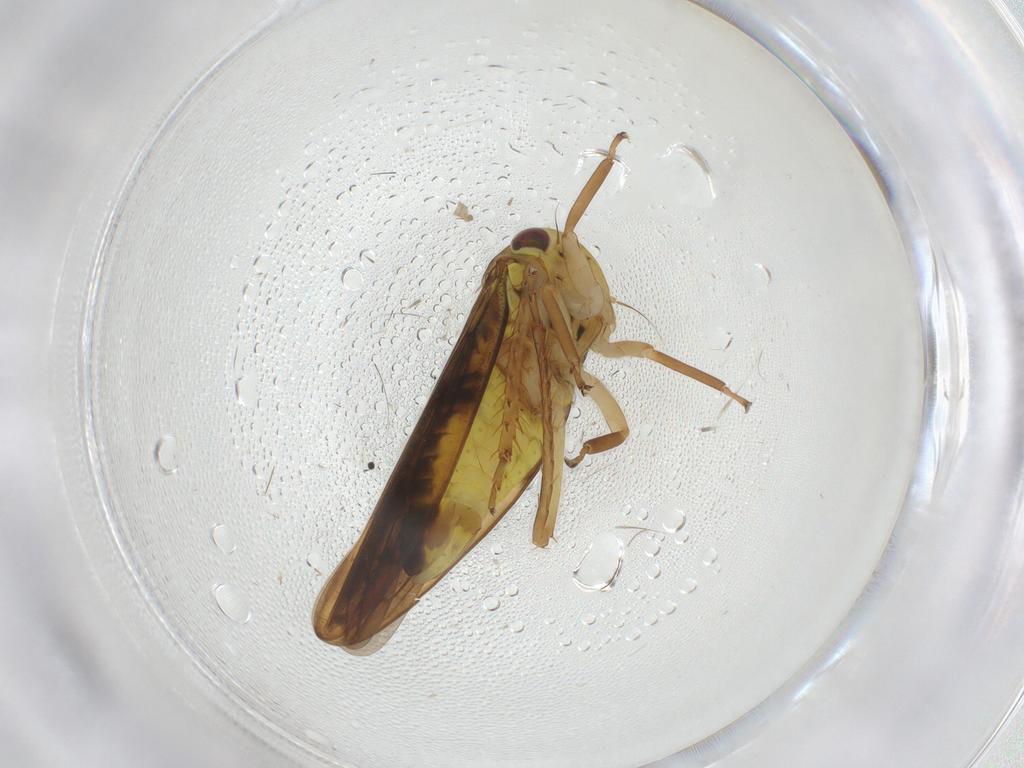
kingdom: Animalia
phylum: Arthropoda
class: Insecta
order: Hemiptera
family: Cicadellidae
